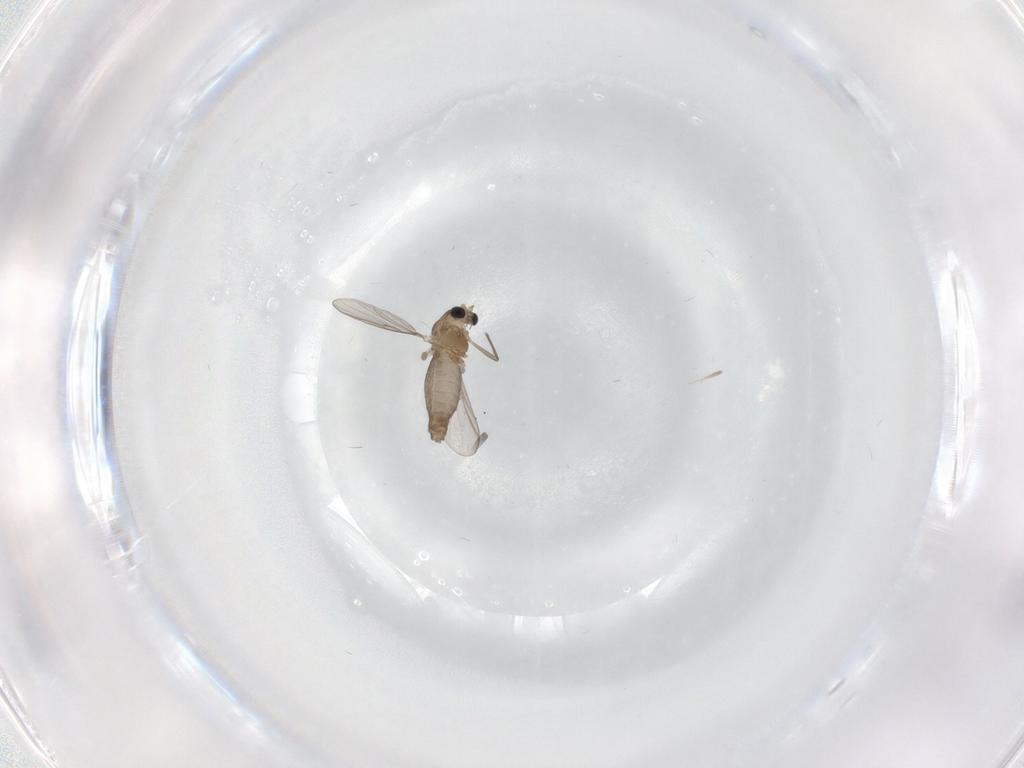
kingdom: Animalia
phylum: Arthropoda
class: Insecta
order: Diptera
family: Chironomidae
